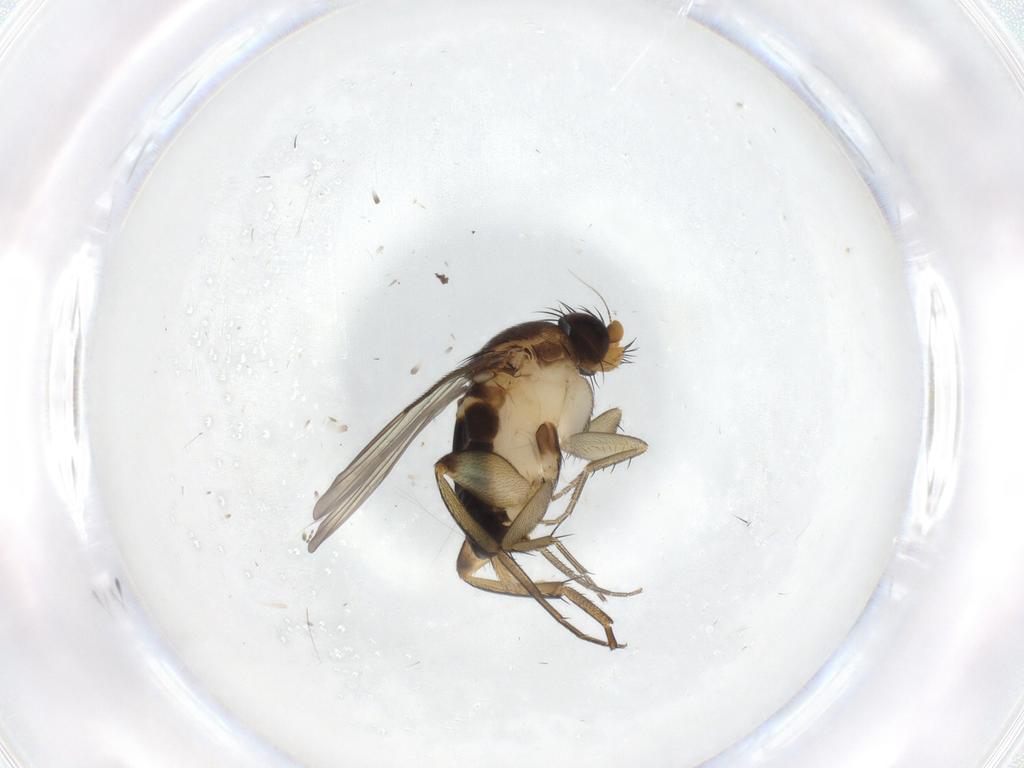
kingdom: Animalia
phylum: Arthropoda
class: Insecta
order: Diptera
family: Phoridae
